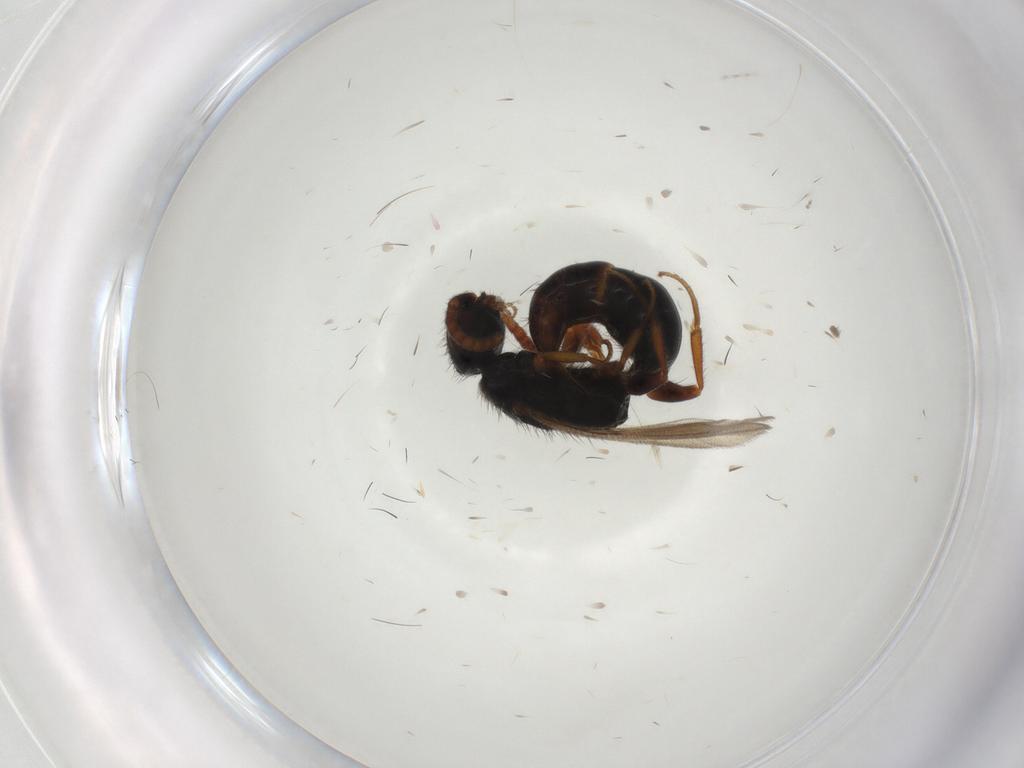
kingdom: Animalia
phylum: Arthropoda
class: Insecta
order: Hymenoptera
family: Bethylidae
